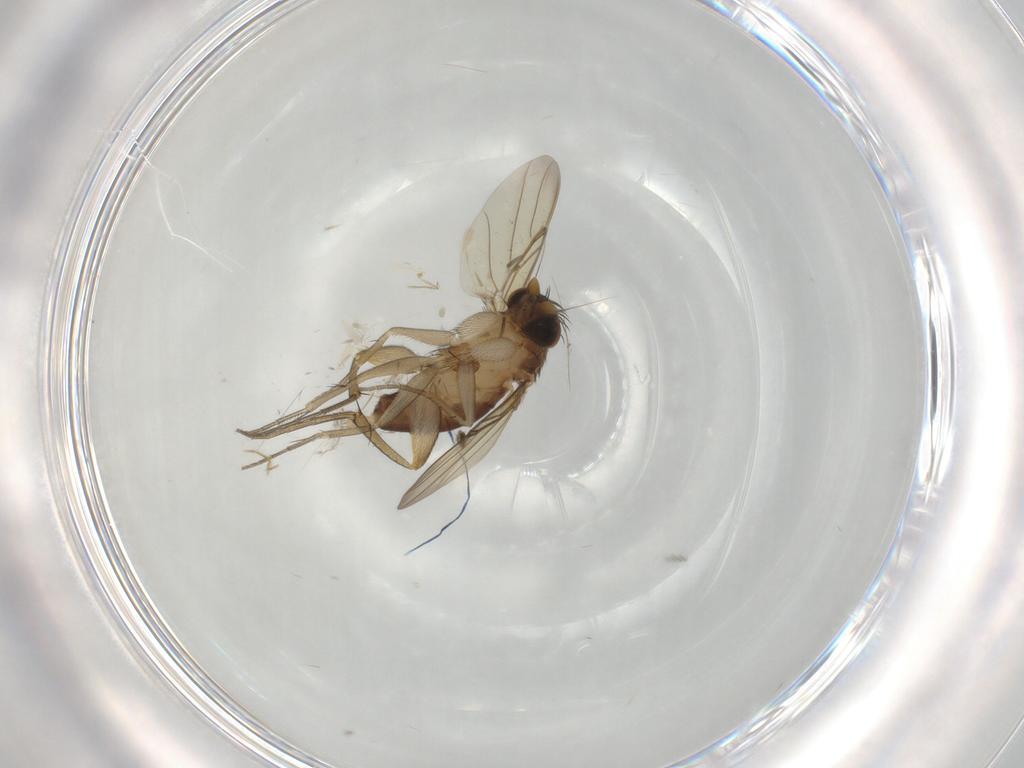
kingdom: Animalia
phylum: Arthropoda
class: Insecta
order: Diptera
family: Tabanidae
